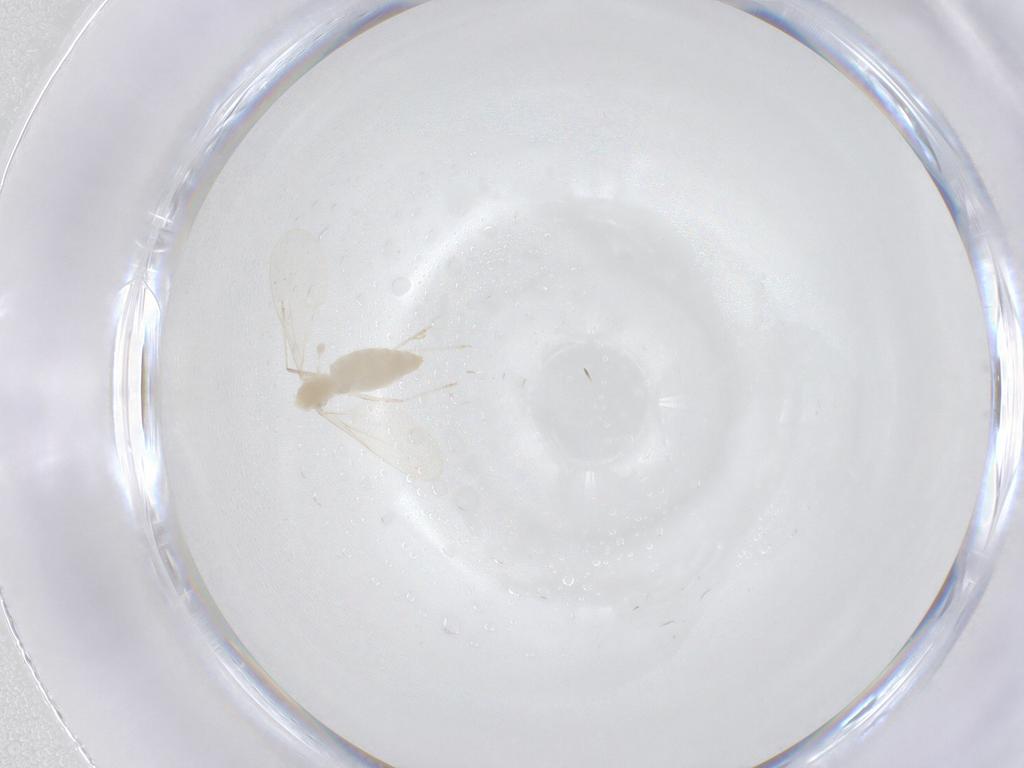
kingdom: Animalia
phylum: Arthropoda
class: Insecta
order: Diptera
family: Cecidomyiidae
